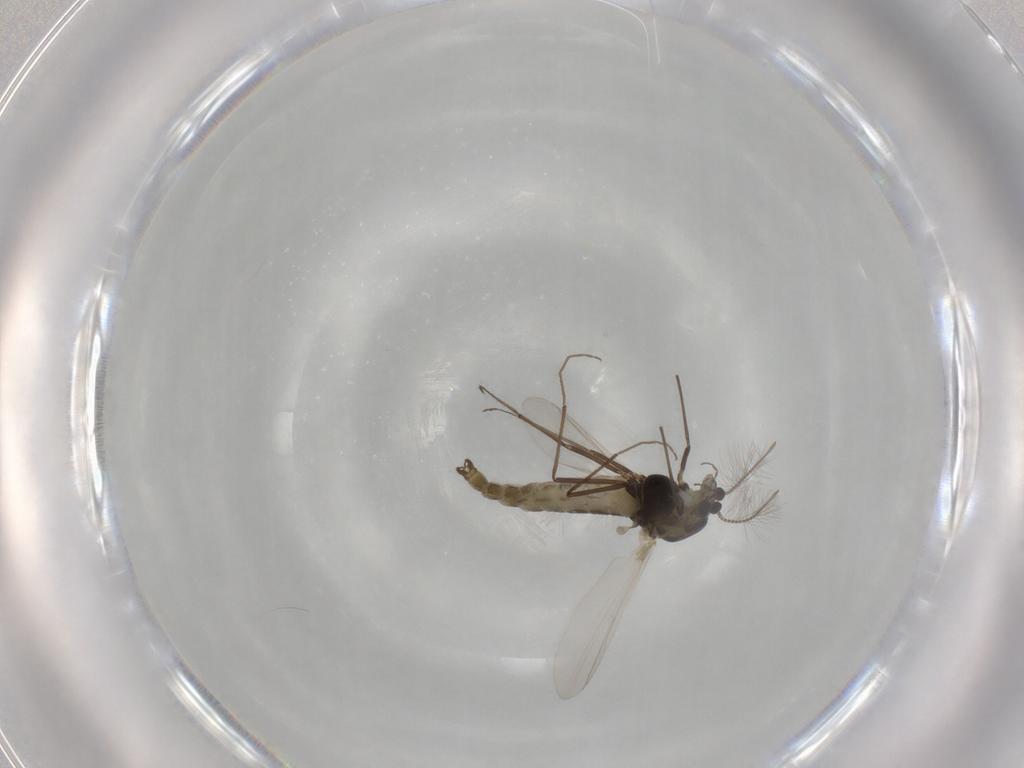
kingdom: Animalia
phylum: Arthropoda
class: Insecta
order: Diptera
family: Chironomidae
